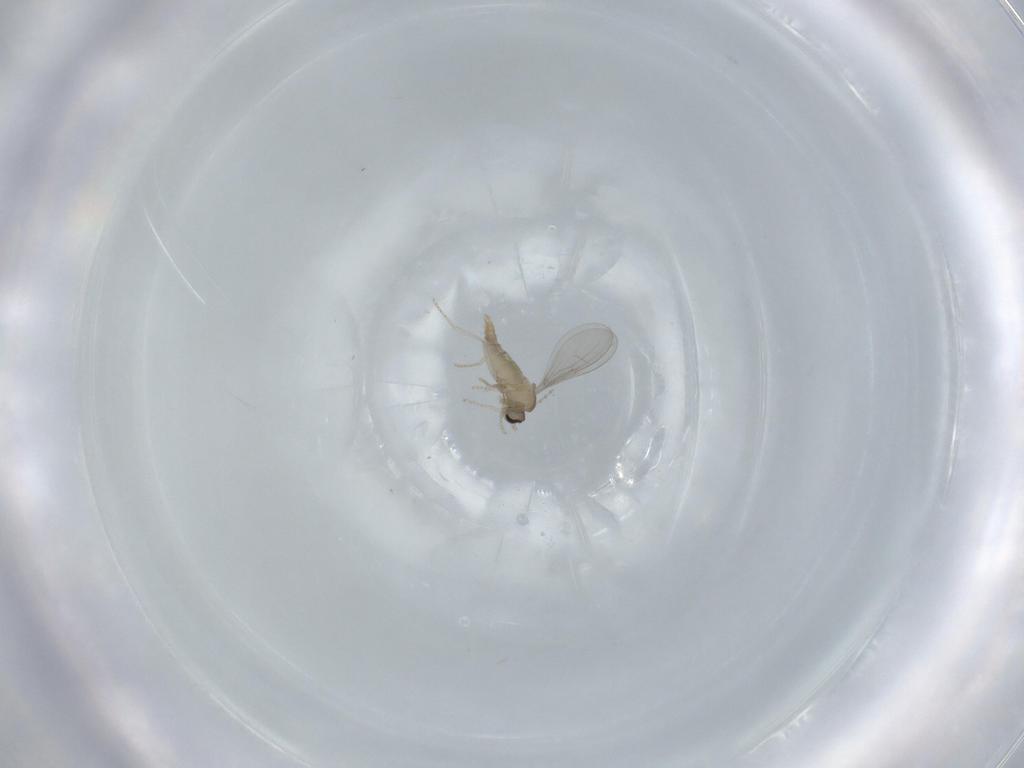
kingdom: Animalia
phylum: Arthropoda
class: Insecta
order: Diptera
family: Cecidomyiidae
